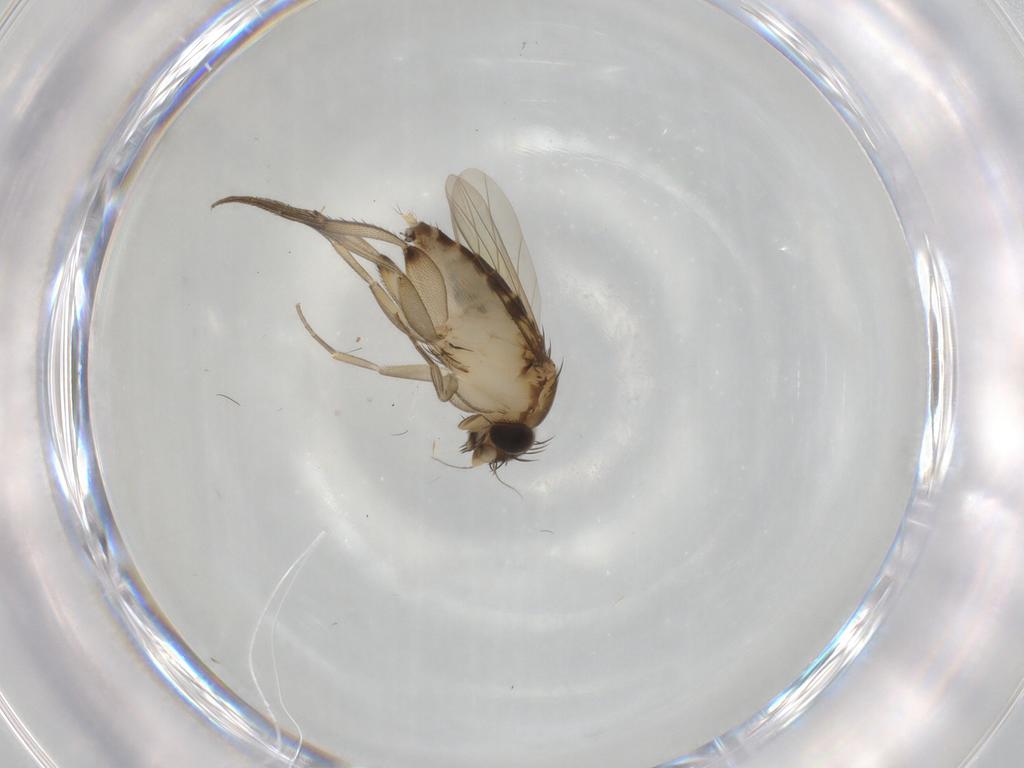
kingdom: Animalia
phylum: Arthropoda
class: Insecta
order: Diptera
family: Phoridae
